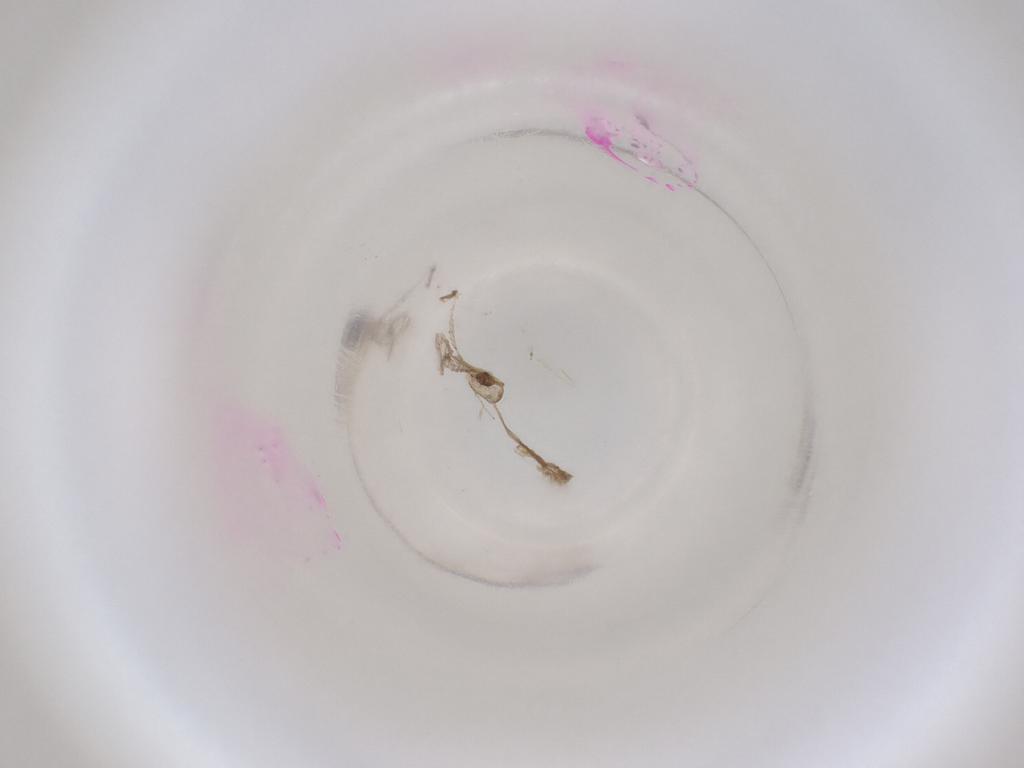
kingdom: Animalia
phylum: Arthropoda
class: Insecta
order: Diptera
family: Cecidomyiidae
